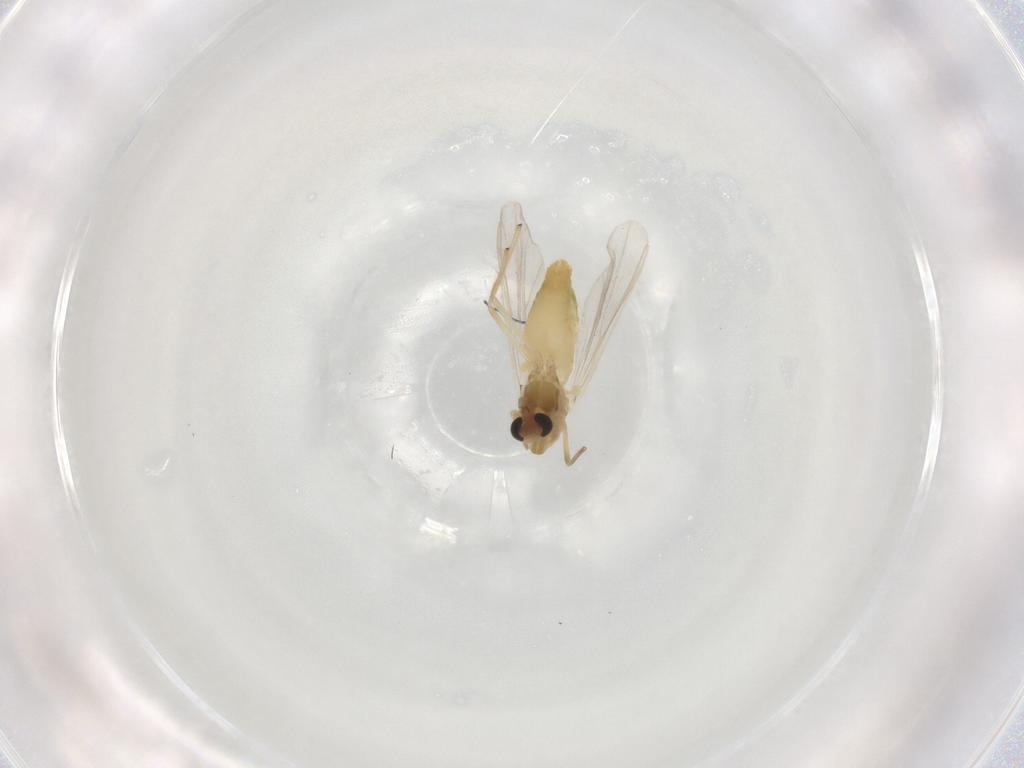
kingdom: Animalia
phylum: Arthropoda
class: Insecta
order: Diptera
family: Chironomidae
